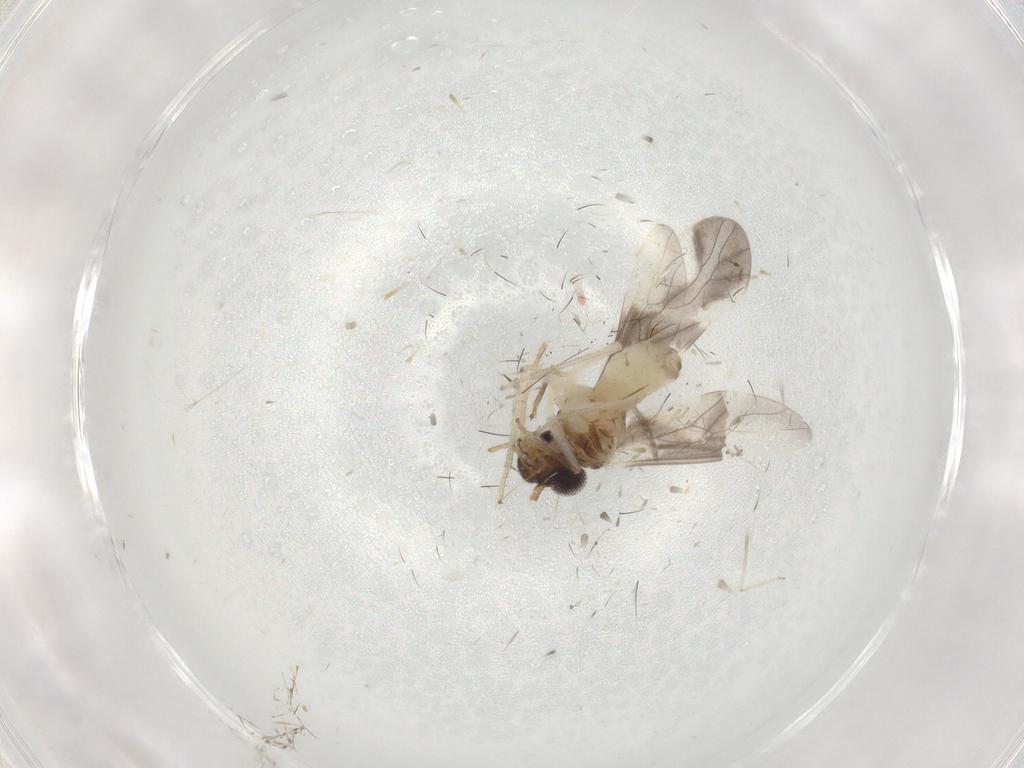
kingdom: Animalia
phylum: Arthropoda
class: Insecta
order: Psocodea
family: Caeciliusidae
